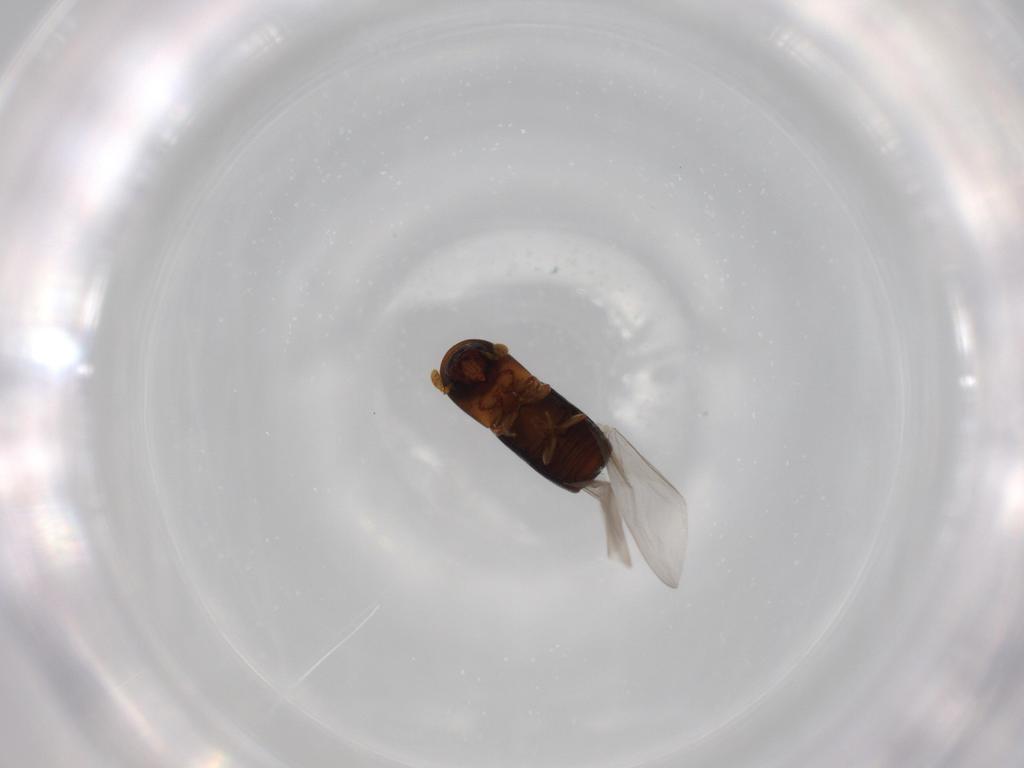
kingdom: Animalia
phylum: Arthropoda
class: Insecta
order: Coleoptera
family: Curculionidae
